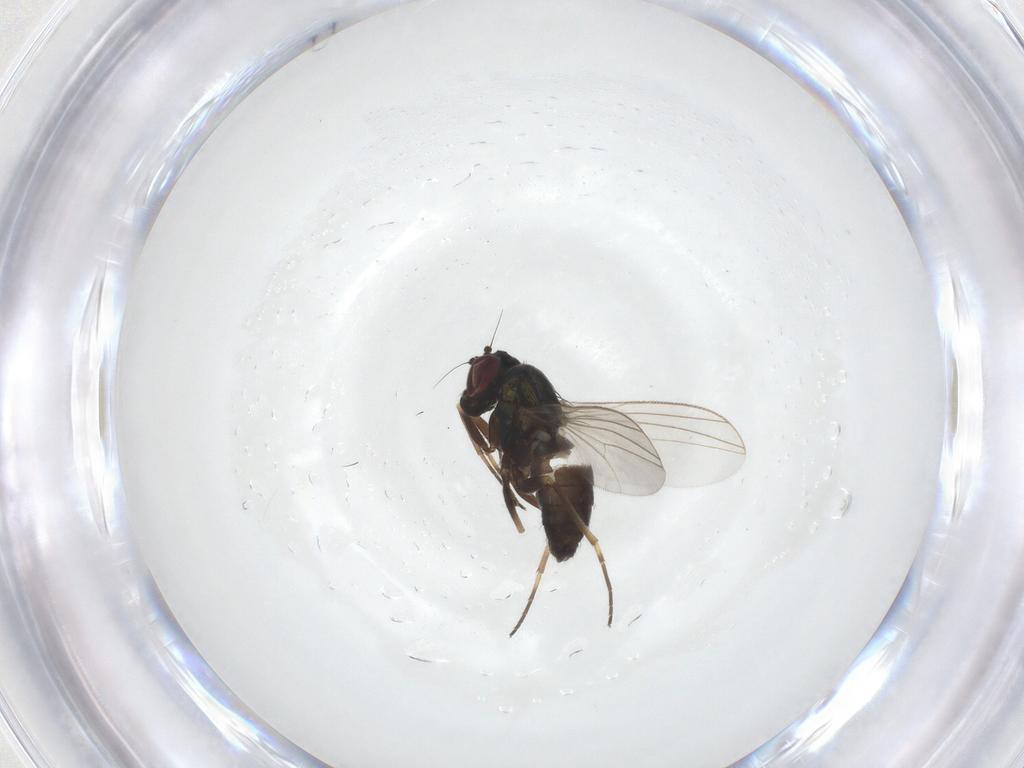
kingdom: Animalia
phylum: Arthropoda
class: Insecta
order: Diptera
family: Dolichopodidae
